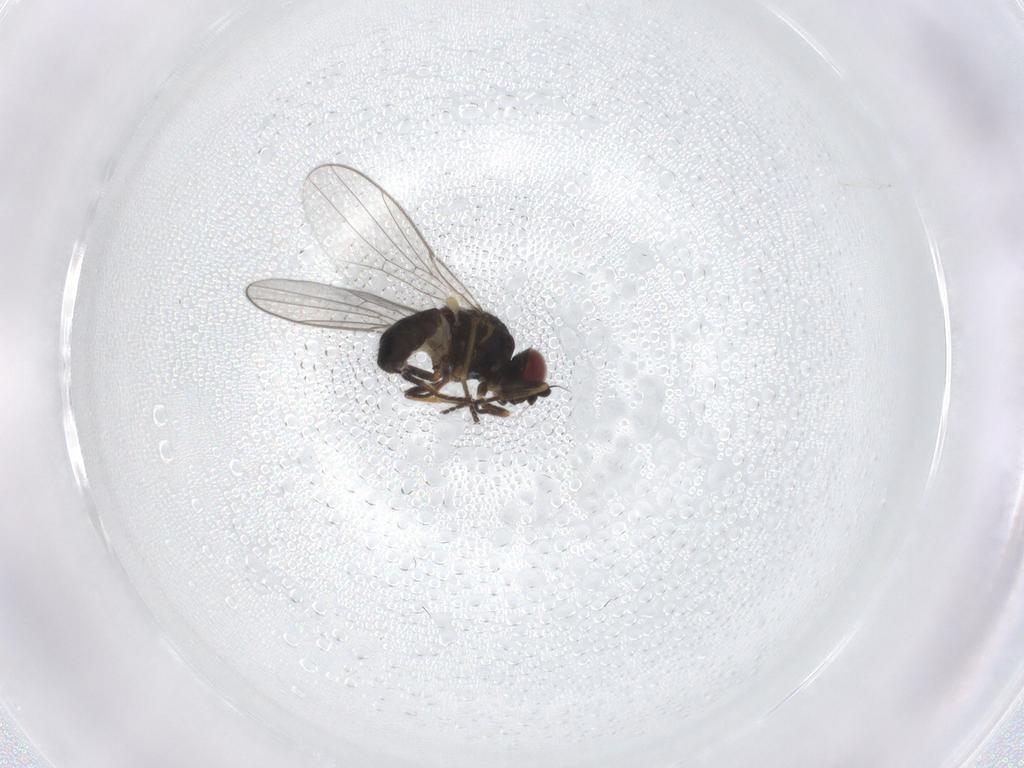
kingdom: Animalia
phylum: Arthropoda
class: Insecta
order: Diptera
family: Chloropidae
